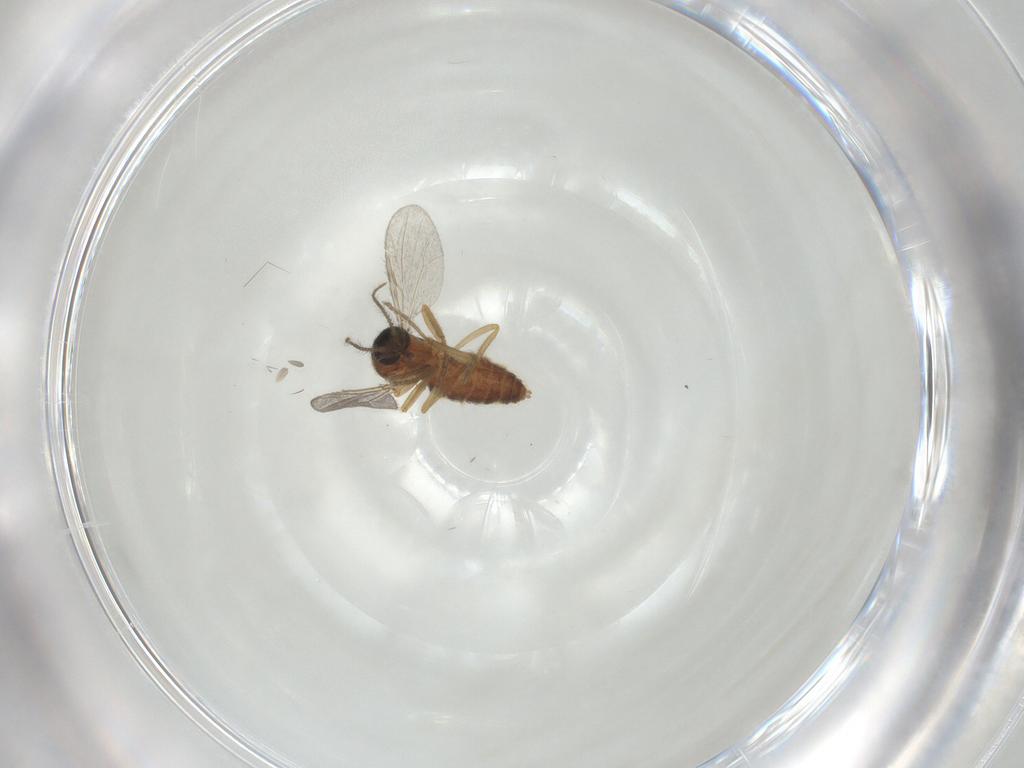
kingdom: Animalia
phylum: Arthropoda
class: Insecta
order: Diptera
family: Ceratopogonidae
